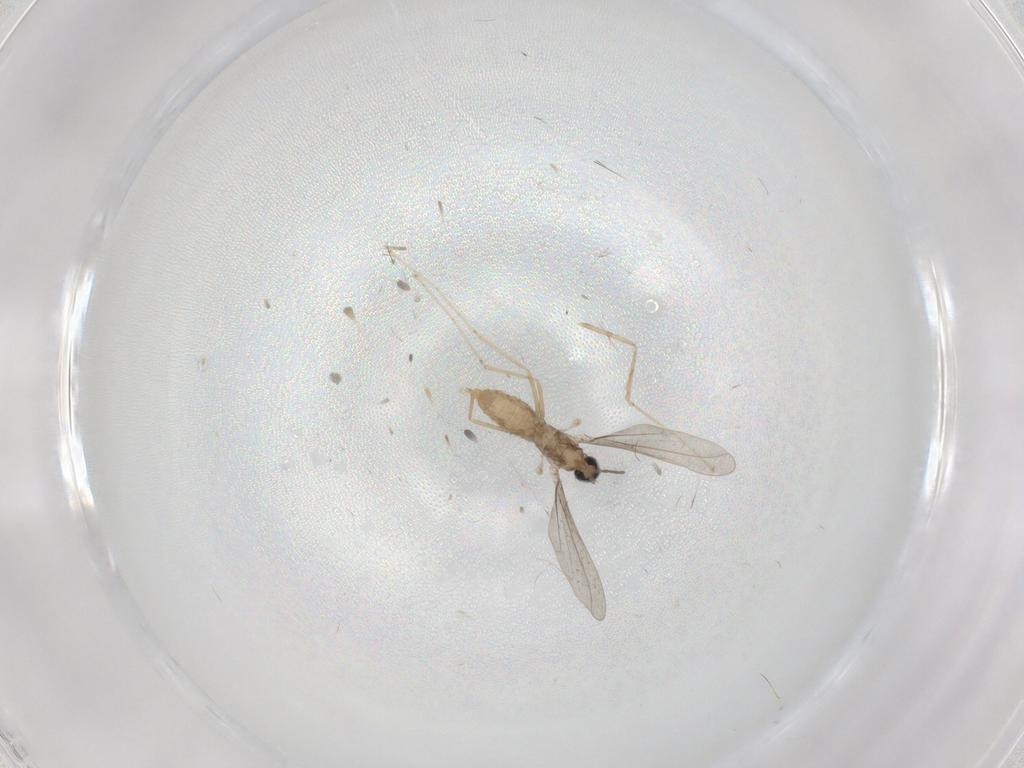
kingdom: Animalia
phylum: Arthropoda
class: Insecta
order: Diptera
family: Cecidomyiidae
